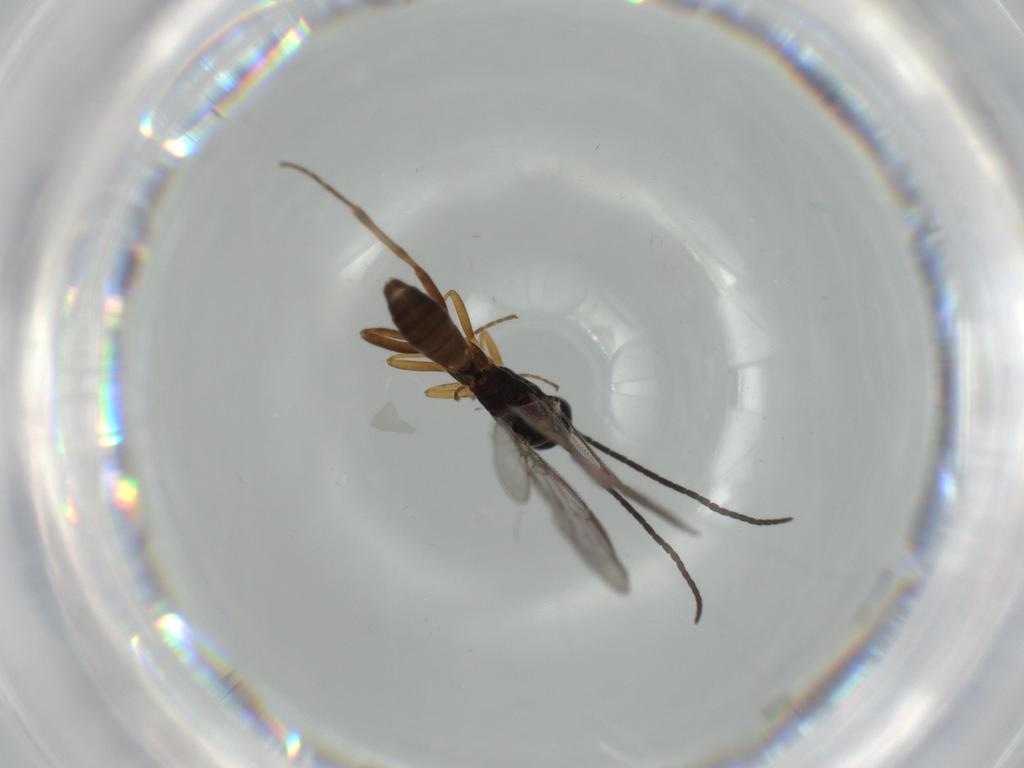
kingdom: Animalia
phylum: Arthropoda
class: Insecta
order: Hymenoptera
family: Ichneumonidae
